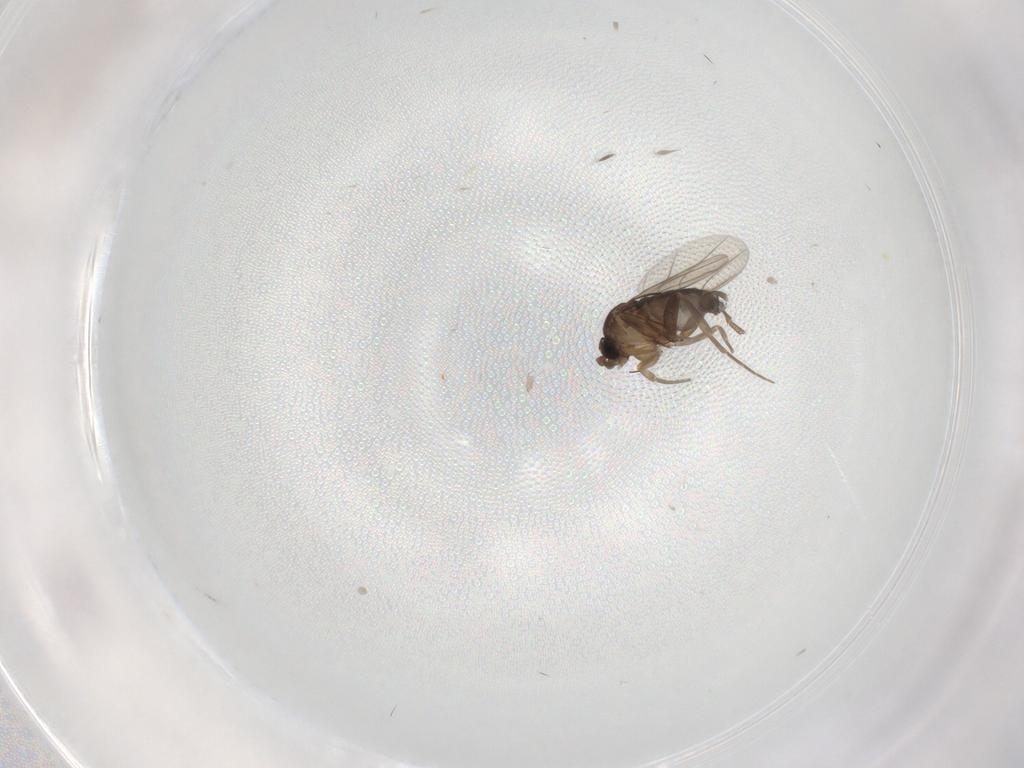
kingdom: Animalia
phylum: Arthropoda
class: Insecta
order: Diptera
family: Phoridae
